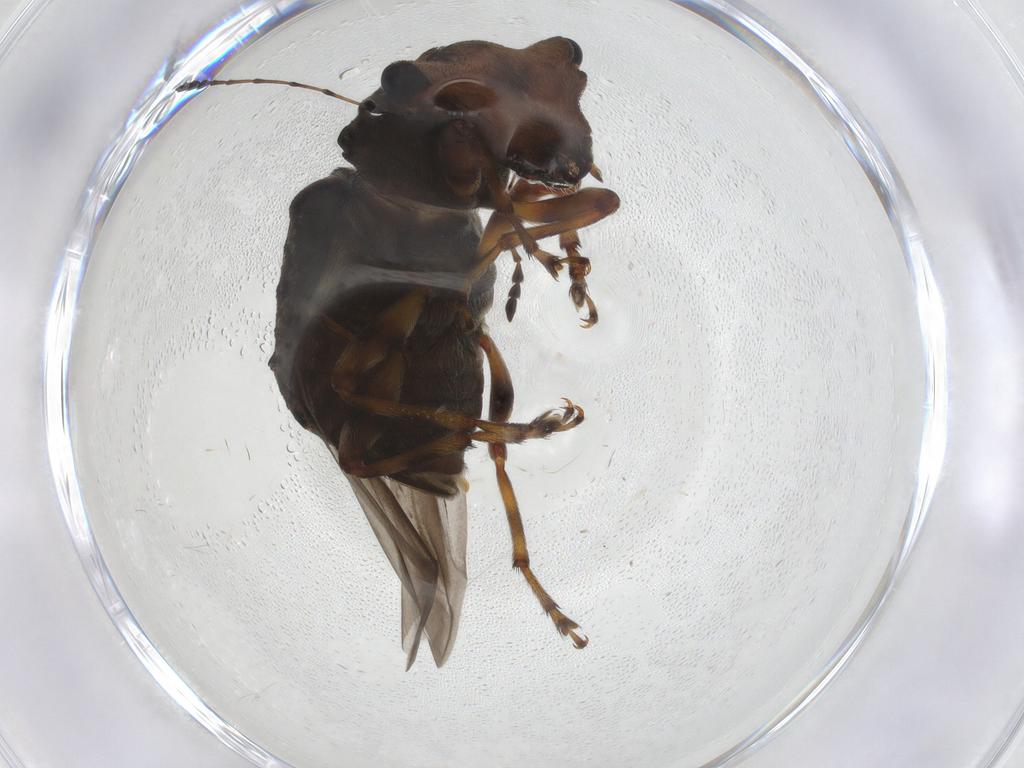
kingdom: Animalia
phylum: Arthropoda
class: Insecta
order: Coleoptera
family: Anthribidae
